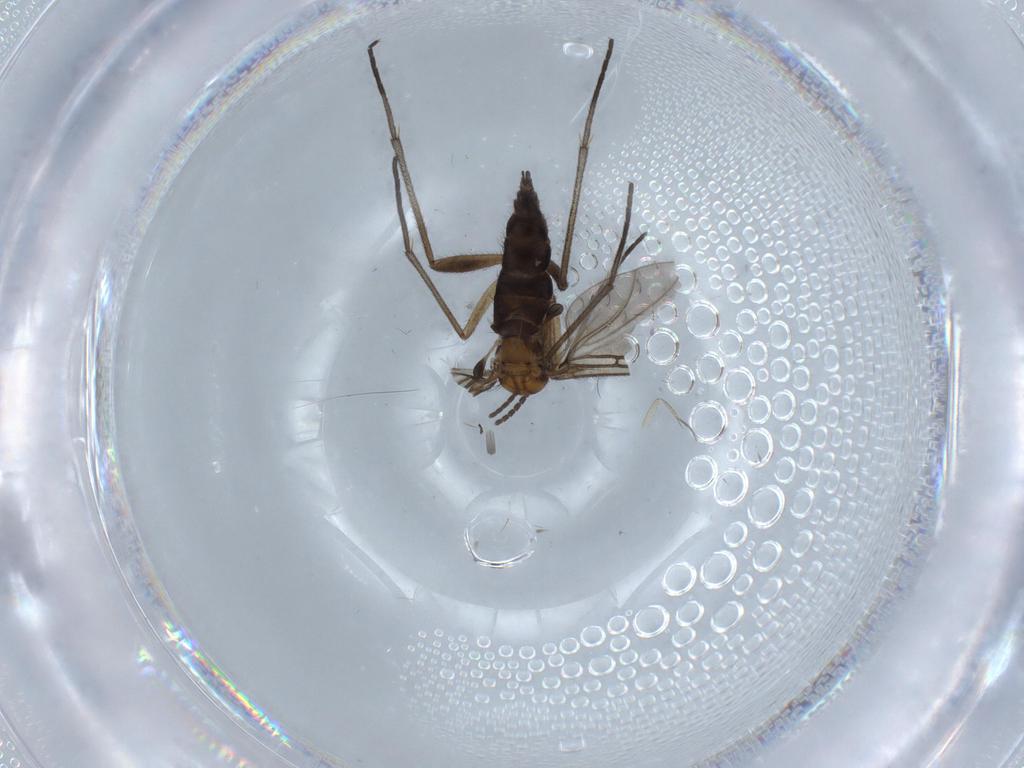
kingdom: Animalia
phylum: Arthropoda
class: Insecta
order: Diptera
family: Sciaridae
